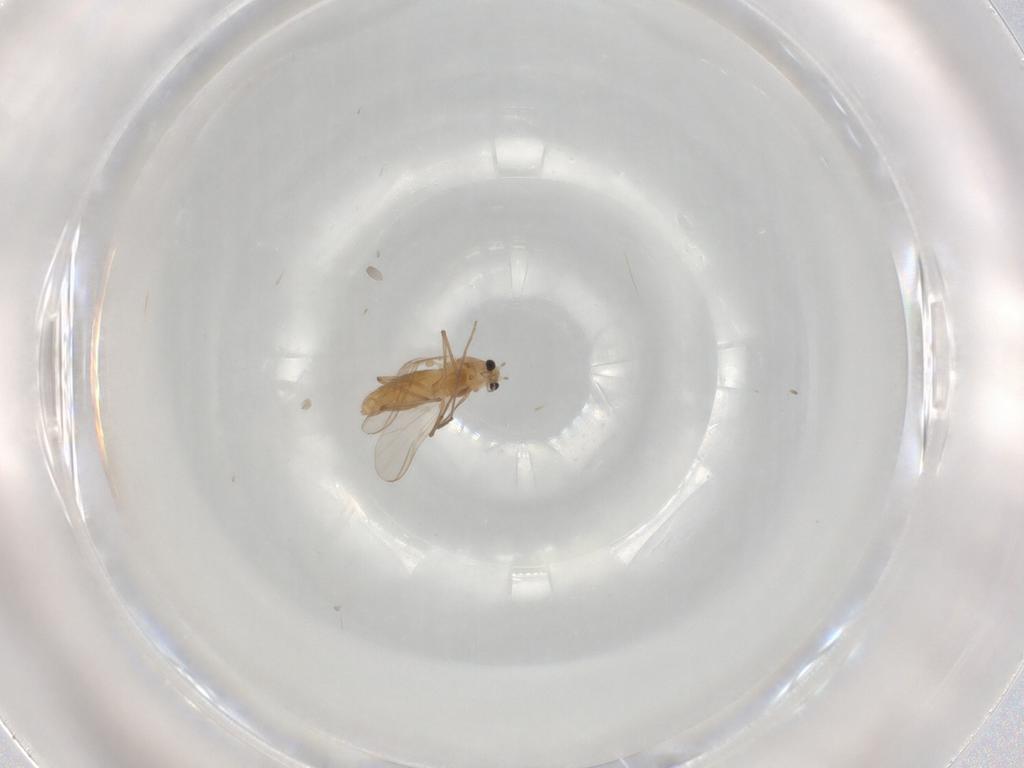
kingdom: Animalia
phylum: Arthropoda
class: Insecta
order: Diptera
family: Chironomidae
